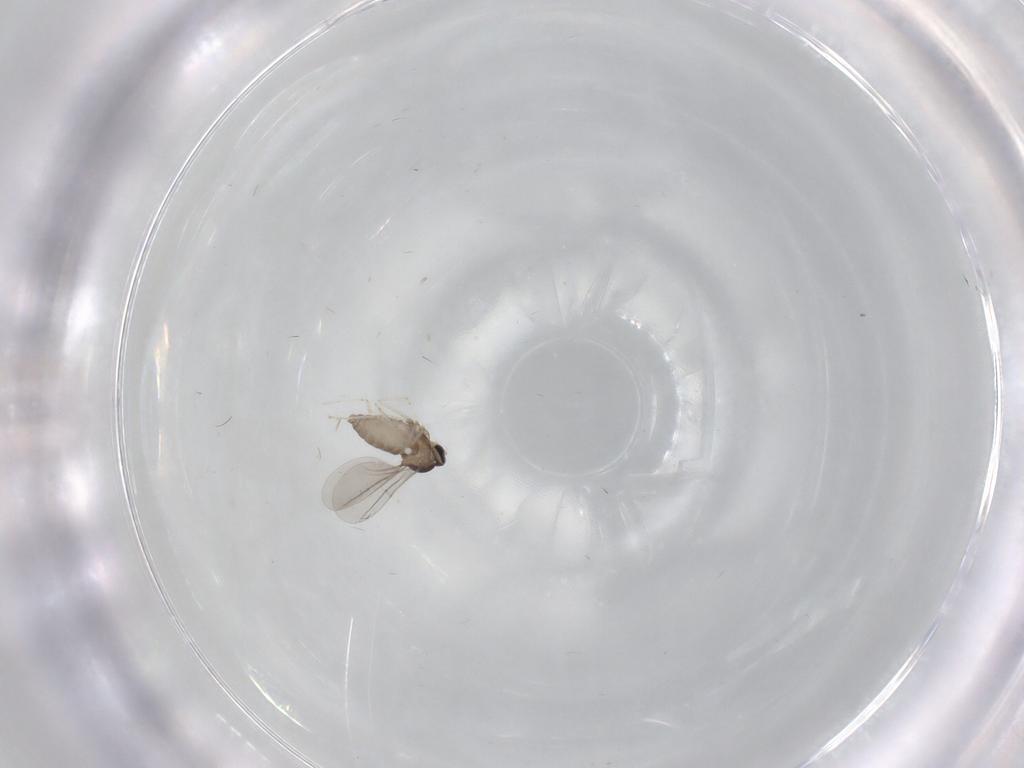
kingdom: Animalia
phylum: Arthropoda
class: Insecta
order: Diptera
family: Cecidomyiidae
